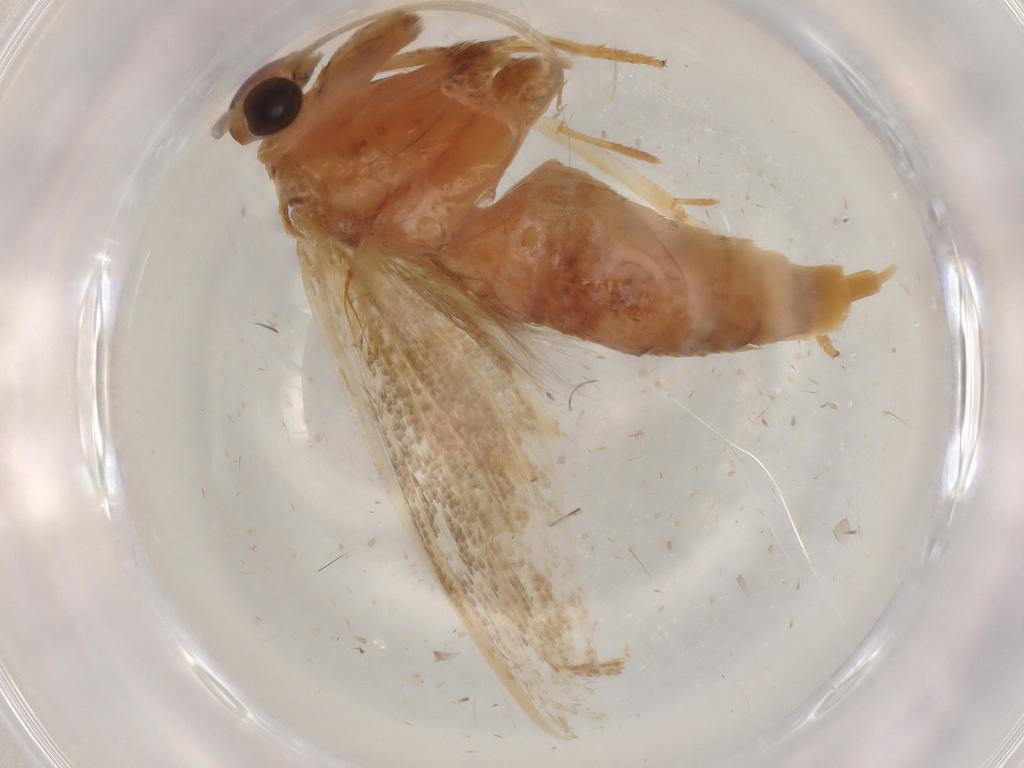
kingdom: Animalia
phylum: Arthropoda
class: Insecta
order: Lepidoptera
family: Blastobasidae
